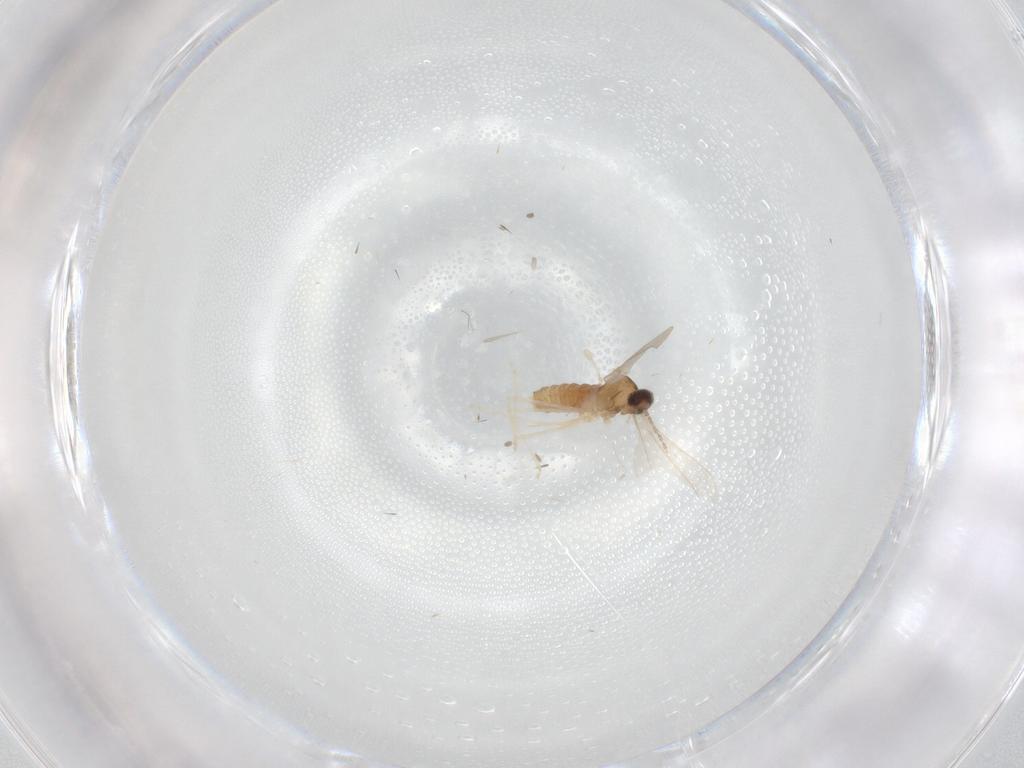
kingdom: Animalia
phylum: Arthropoda
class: Insecta
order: Diptera
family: Cecidomyiidae
